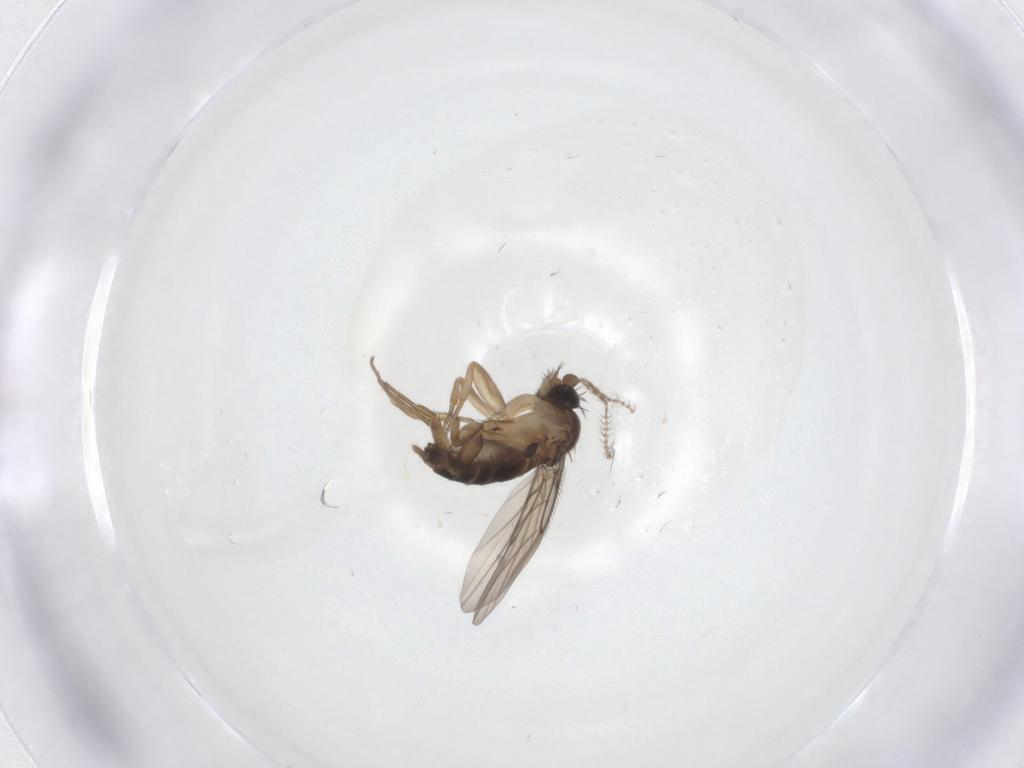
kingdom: Animalia
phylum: Arthropoda
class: Insecta
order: Diptera
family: Phoridae
